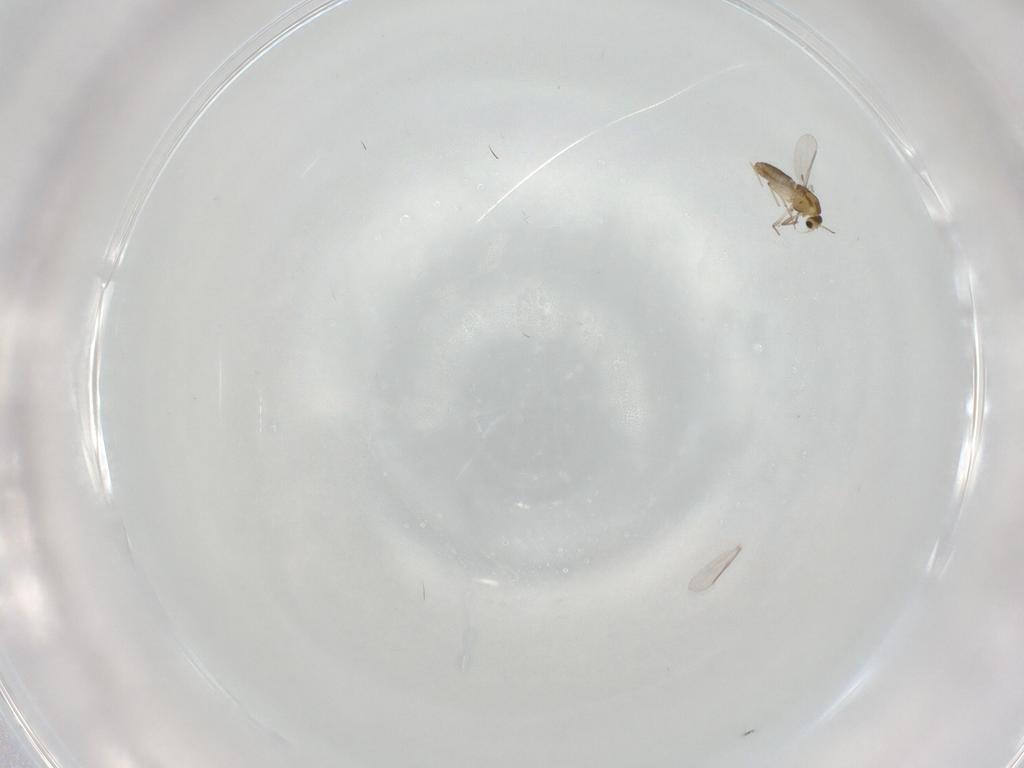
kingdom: Animalia
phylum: Arthropoda
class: Insecta
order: Diptera
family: Chironomidae
